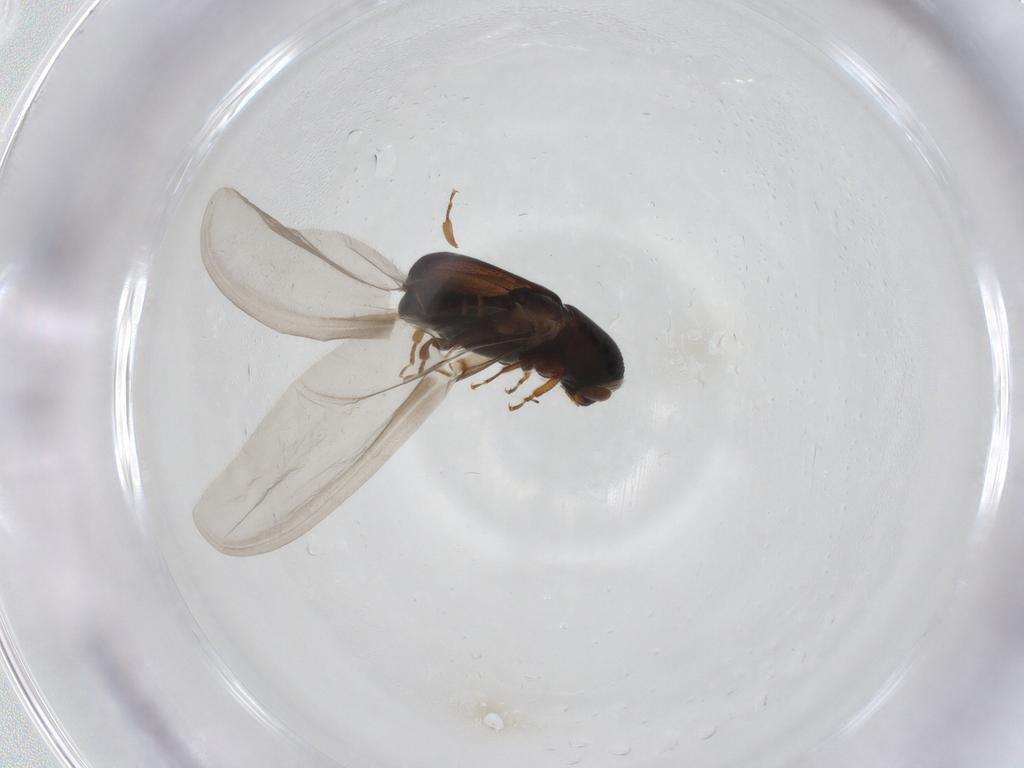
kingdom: Animalia
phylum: Arthropoda
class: Insecta
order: Coleoptera
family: Curculionidae
